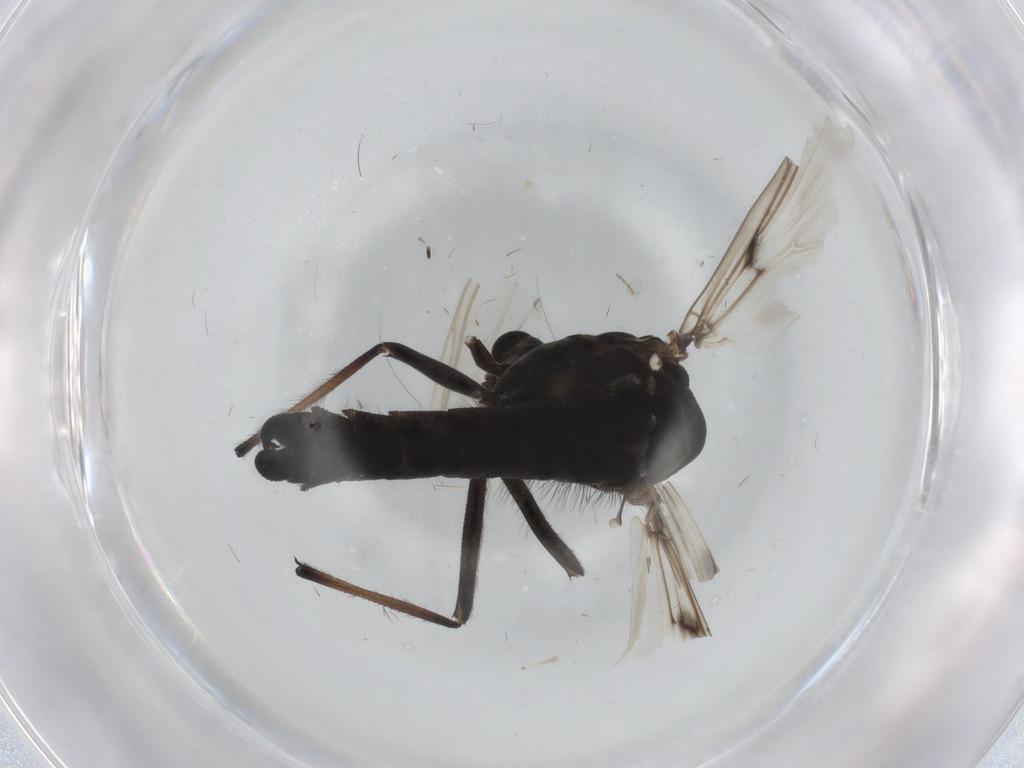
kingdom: Animalia
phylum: Arthropoda
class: Insecta
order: Diptera
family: Chironomidae
